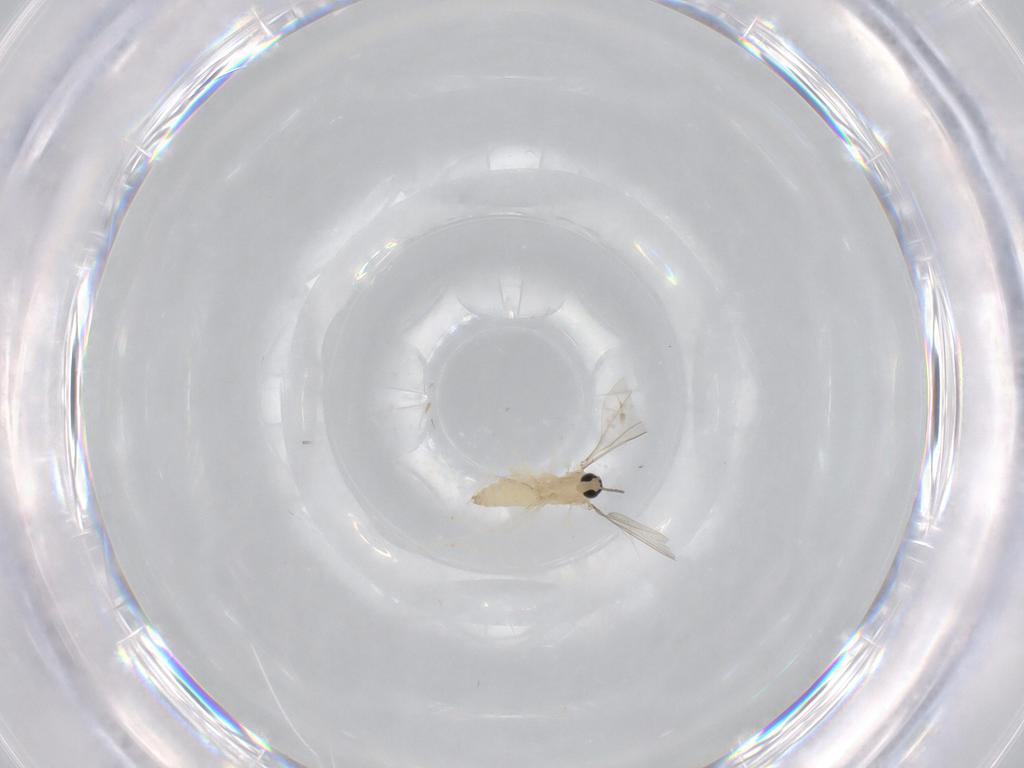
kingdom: Animalia
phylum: Arthropoda
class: Insecta
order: Diptera
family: Cecidomyiidae
